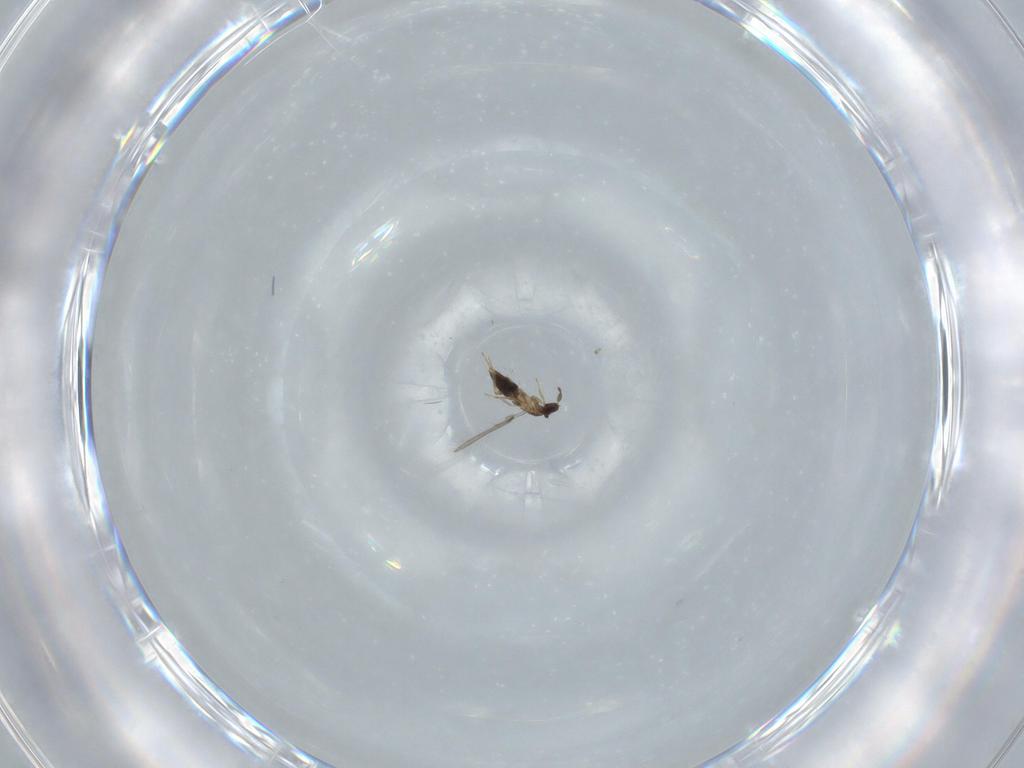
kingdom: Animalia
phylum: Arthropoda
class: Insecta
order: Hymenoptera
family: Mymaridae
